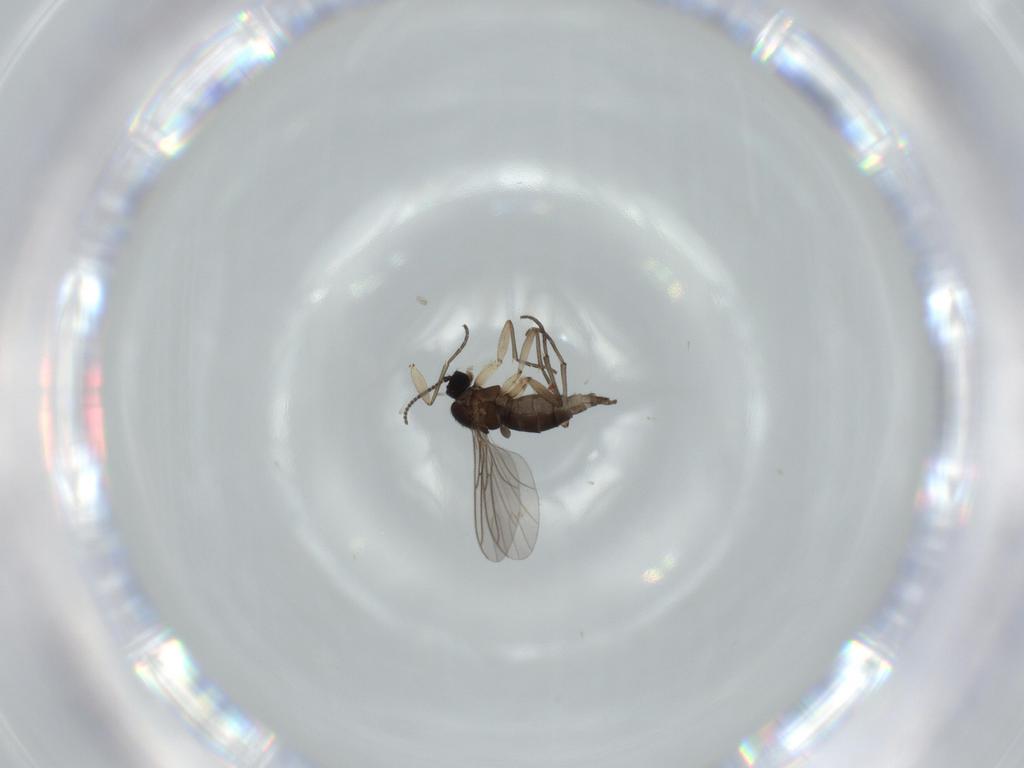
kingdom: Animalia
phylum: Arthropoda
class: Insecta
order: Diptera
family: Sciaridae
